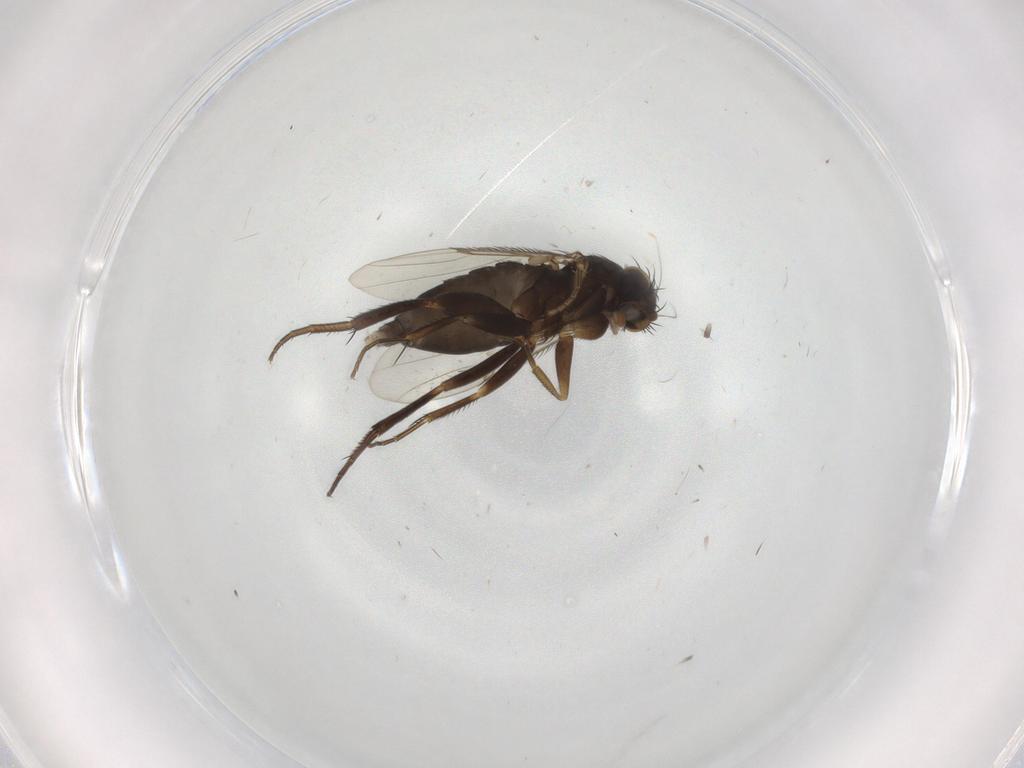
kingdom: Animalia
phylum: Arthropoda
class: Insecta
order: Diptera
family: Phoridae
